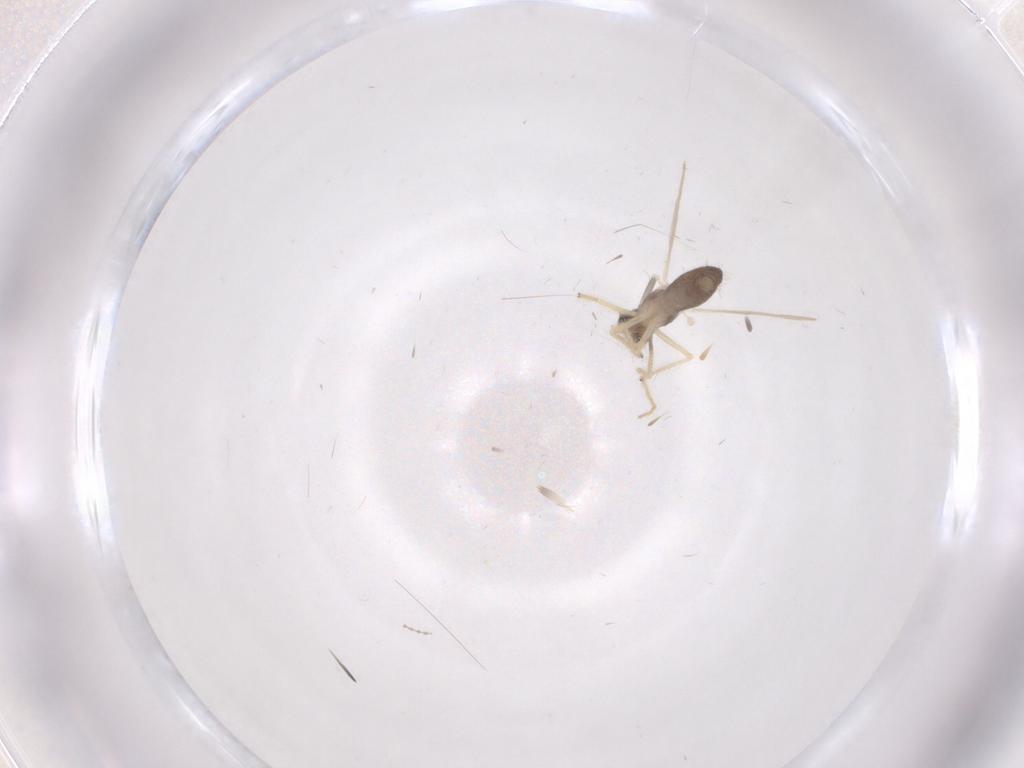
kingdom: Animalia
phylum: Arthropoda
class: Insecta
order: Diptera
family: Chironomidae
